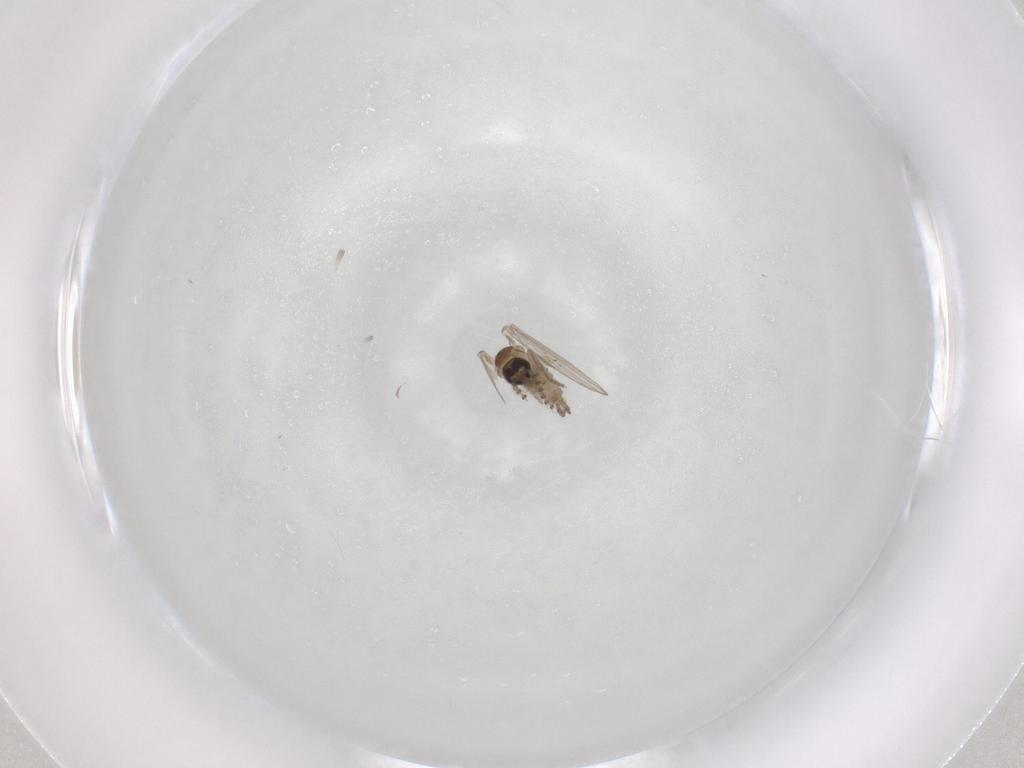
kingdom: Animalia
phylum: Arthropoda
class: Insecta
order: Diptera
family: Psychodidae
